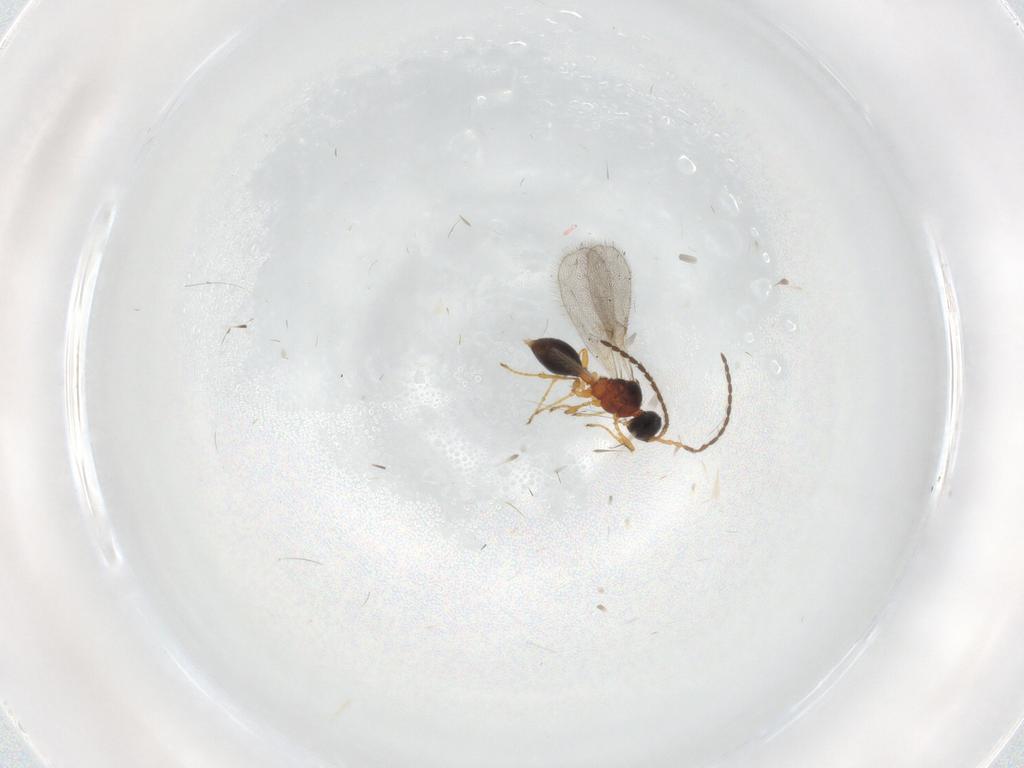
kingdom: Animalia
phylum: Arthropoda
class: Insecta
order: Hymenoptera
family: Diapriidae
